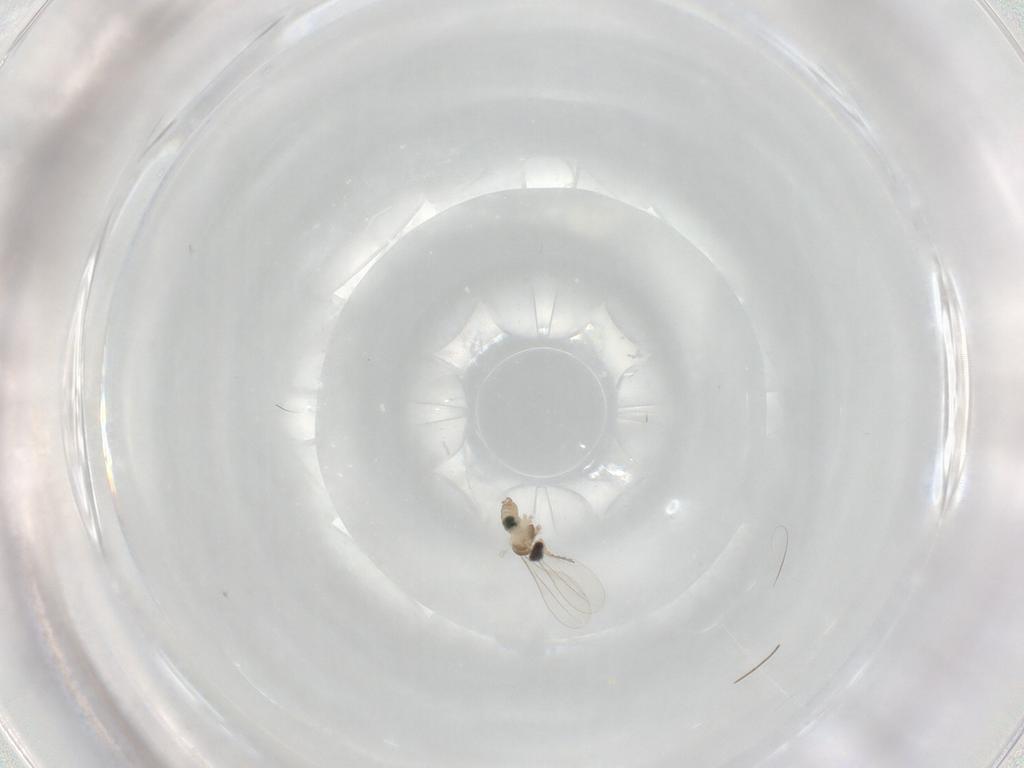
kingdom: Animalia
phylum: Arthropoda
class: Insecta
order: Diptera
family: Cecidomyiidae
